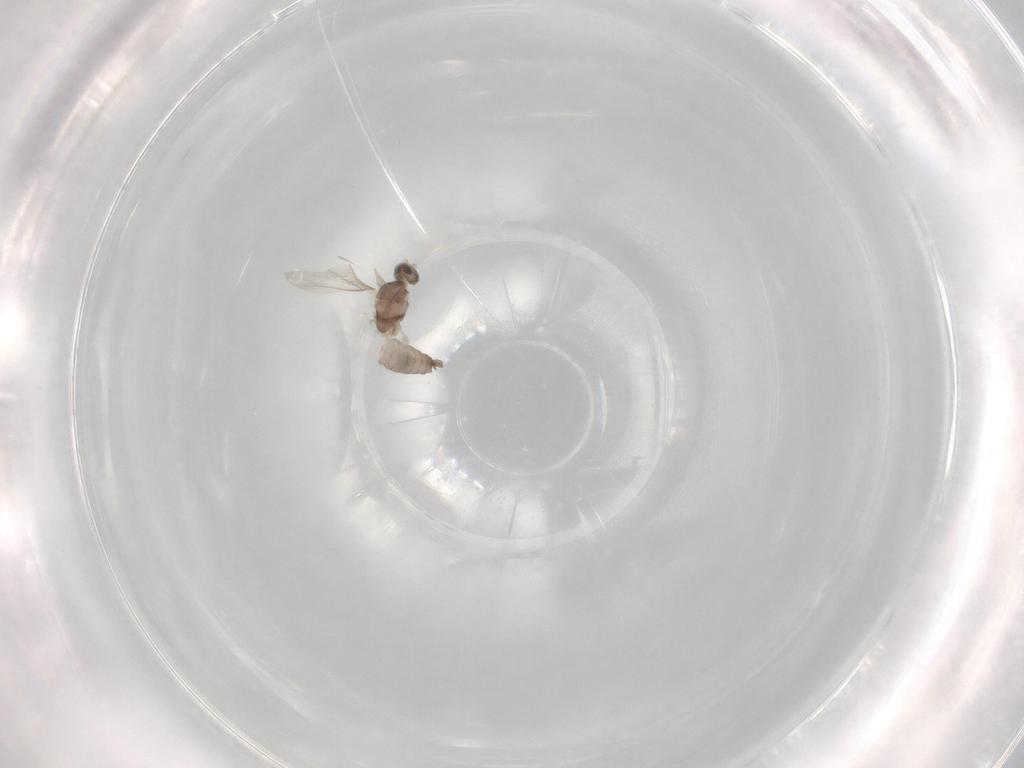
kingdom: Animalia
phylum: Arthropoda
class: Insecta
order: Diptera
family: Cecidomyiidae
